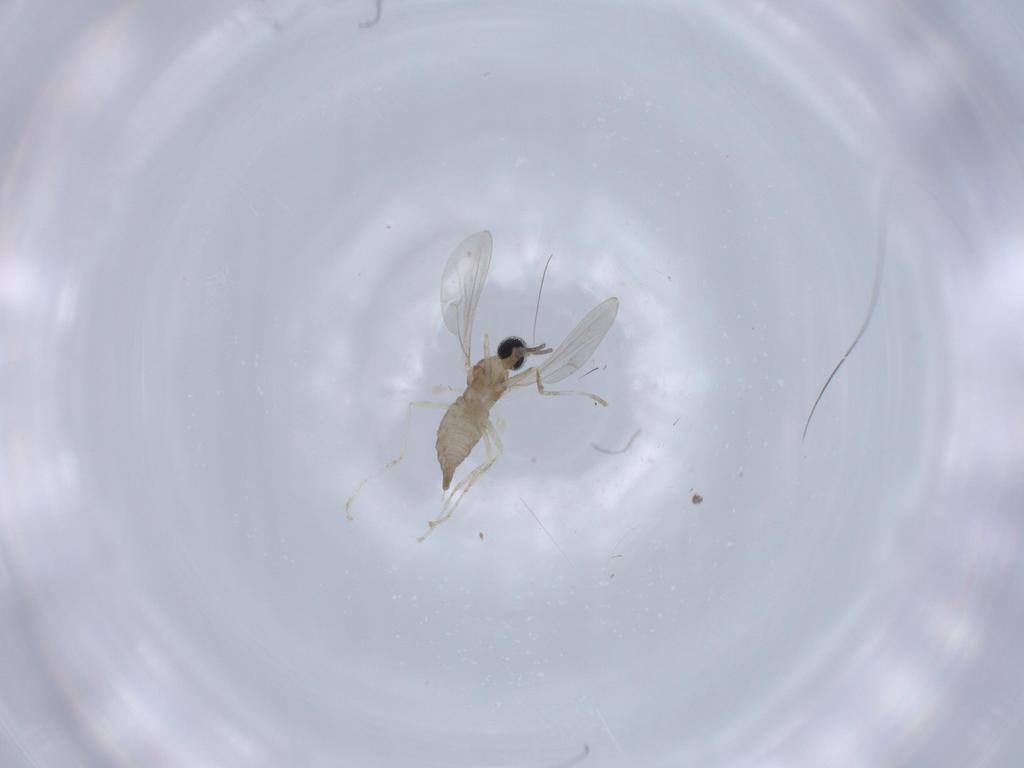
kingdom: Animalia
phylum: Arthropoda
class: Insecta
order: Diptera
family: Cecidomyiidae
